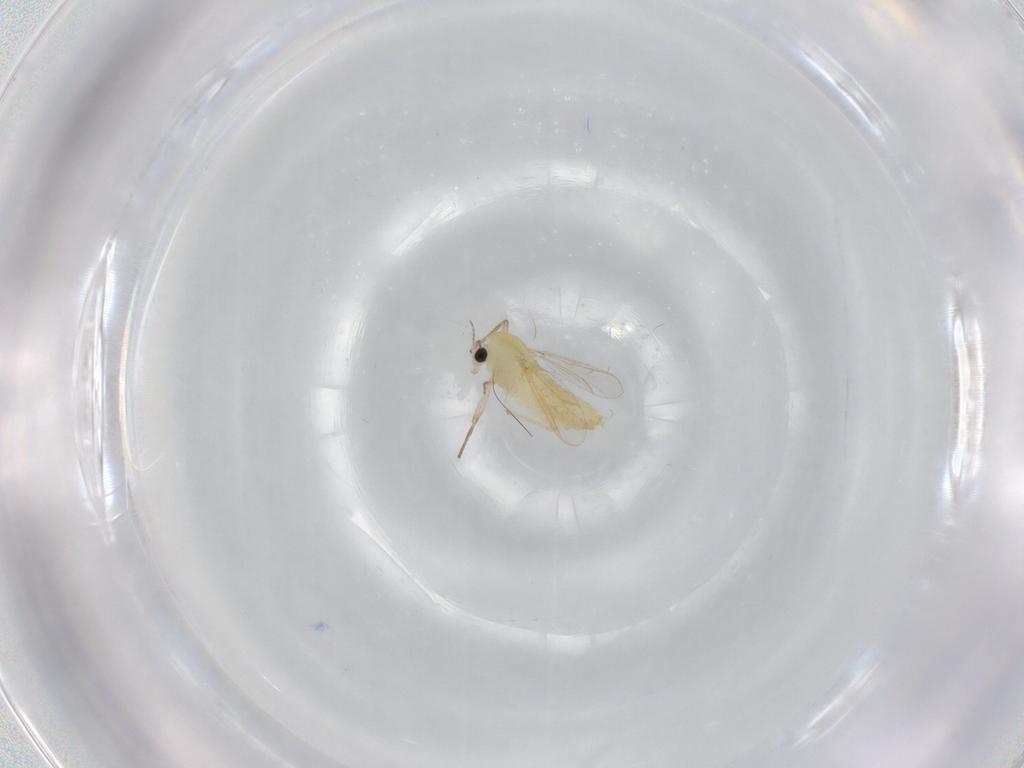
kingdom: Animalia
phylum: Arthropoda
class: Insecta
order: Diptera
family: Chironomidae
